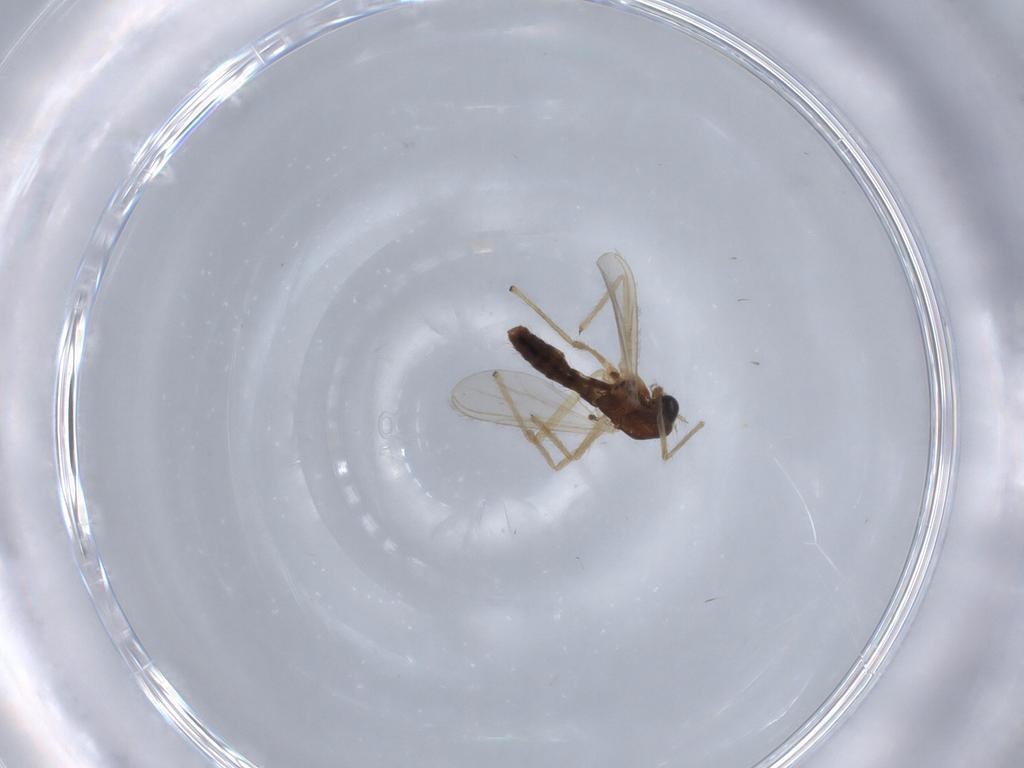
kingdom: Animalia
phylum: Arthropoda
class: Insecta
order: Diptera
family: Chironomidae
